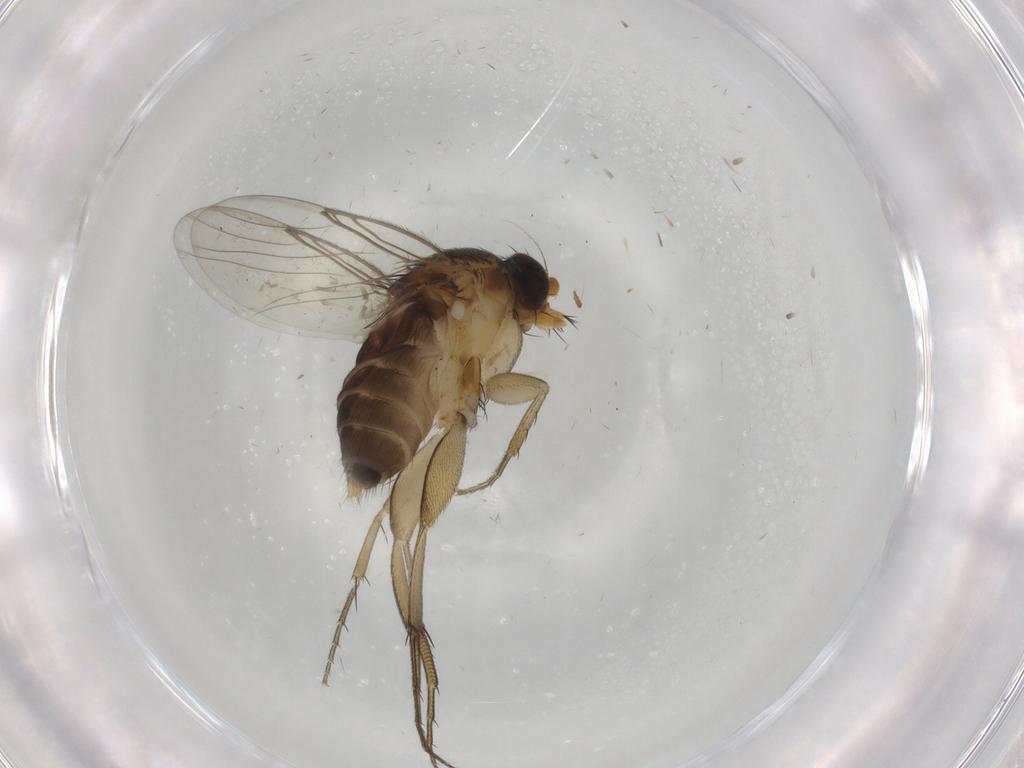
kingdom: Animalia
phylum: Arthropoda
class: Insecta
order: Diptera
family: Phoridae
